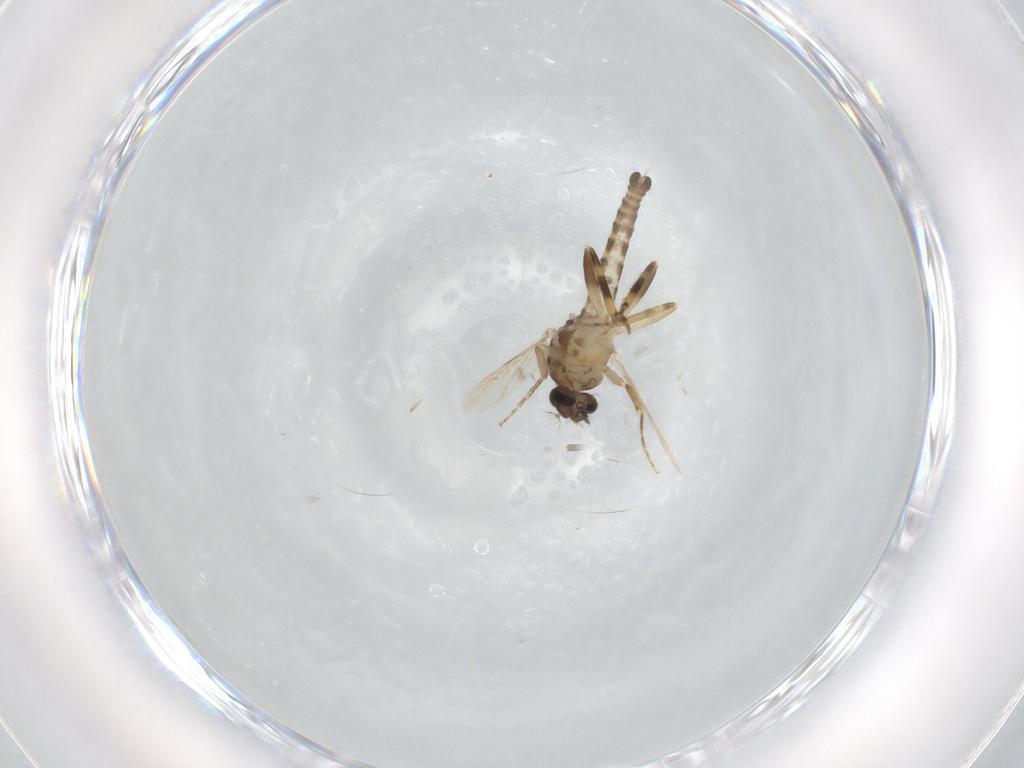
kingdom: Animalia
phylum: Arthropoda
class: Insecta
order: Diptera
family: Ceratopogonidae
